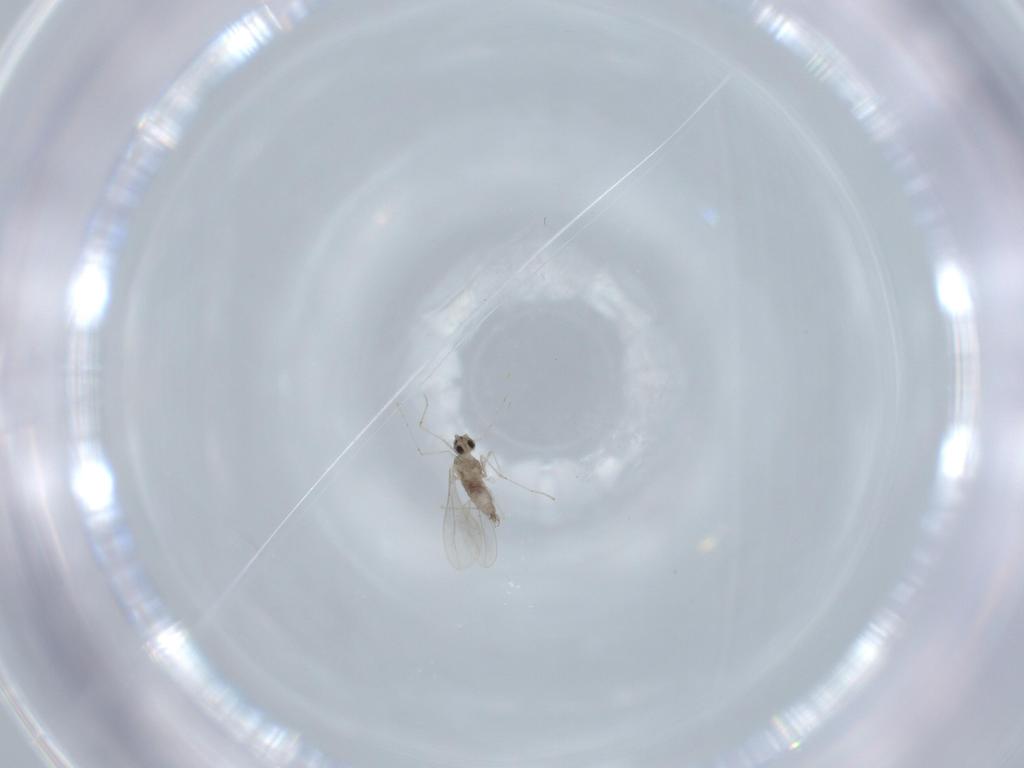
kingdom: Animalia
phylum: Arthropoda
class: Insecta
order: Diptera
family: Cecidomyiidae
